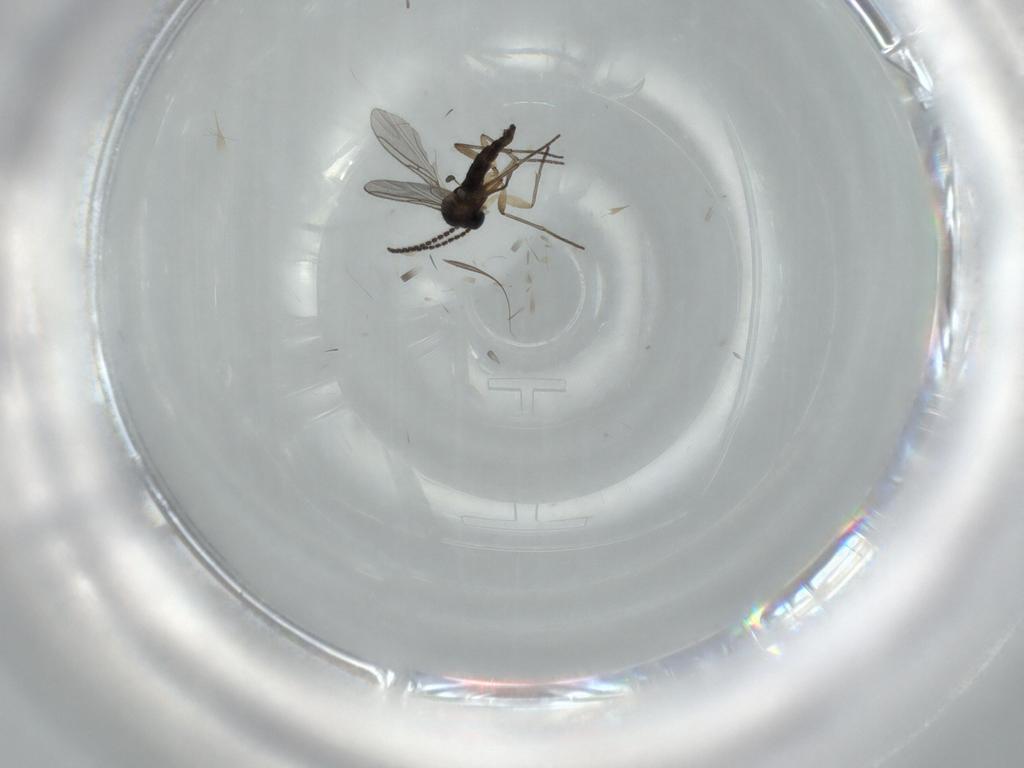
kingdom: Animalia
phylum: Arthropoda
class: Insecta
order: Diptera
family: Sciaridae
